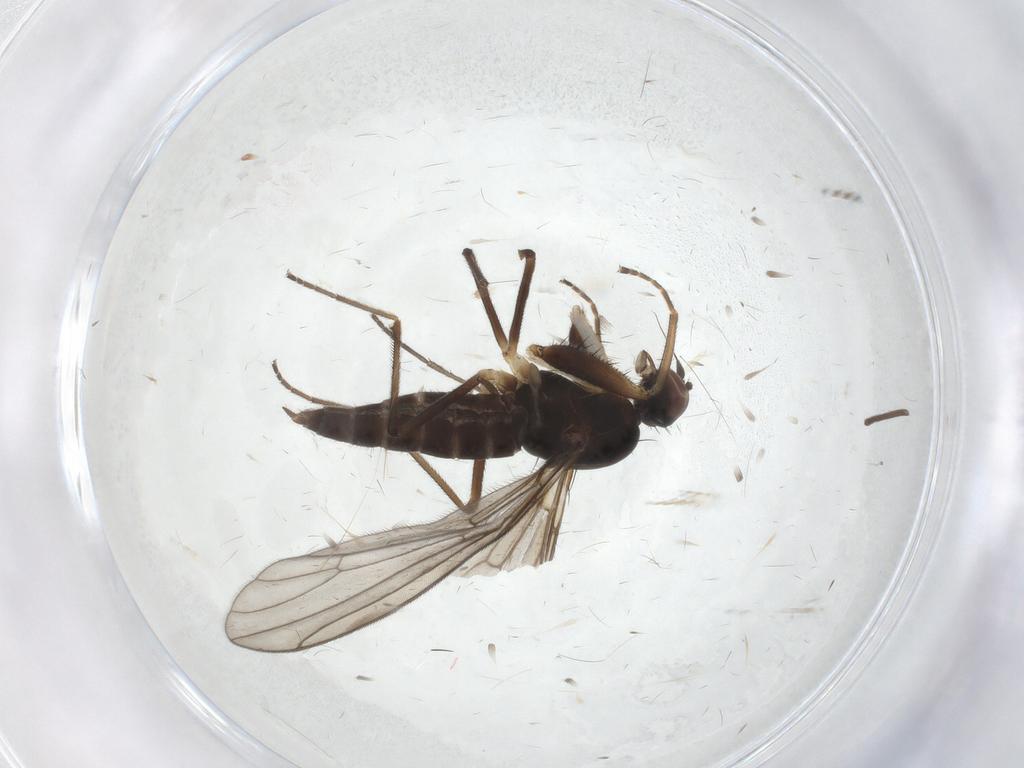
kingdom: Animalia
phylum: Arthropoda
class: Insecta
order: Diptera
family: Empididae
